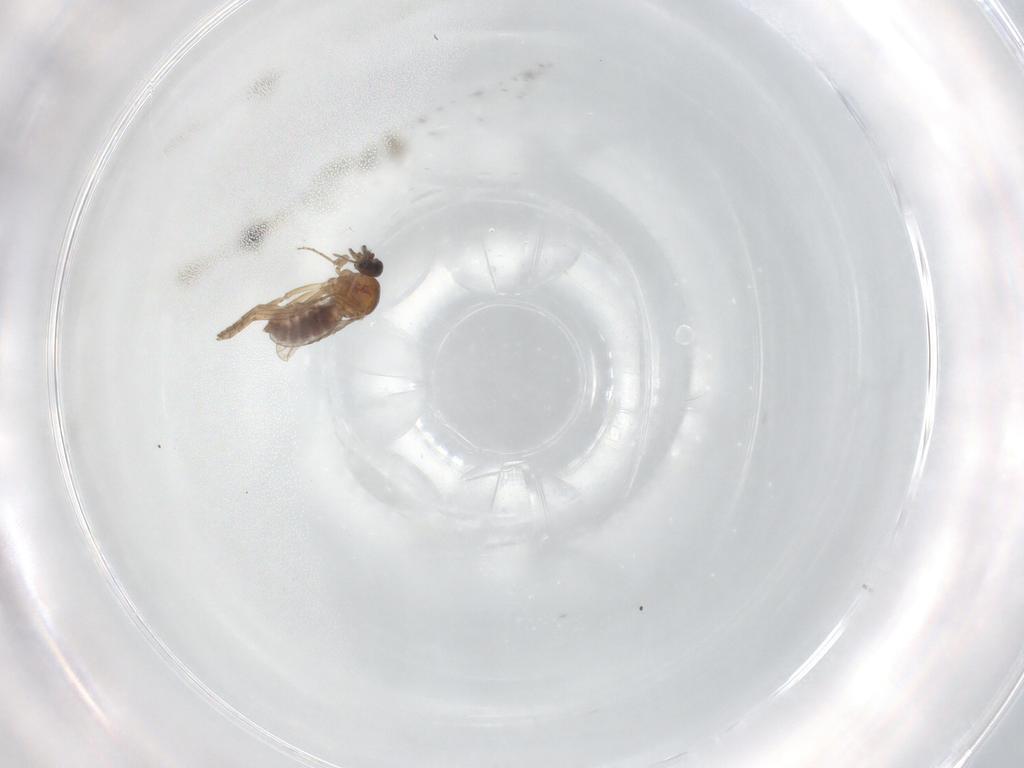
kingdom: Animalia
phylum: Arthropoda
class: Insecta
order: Diptera
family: Chironomidae
